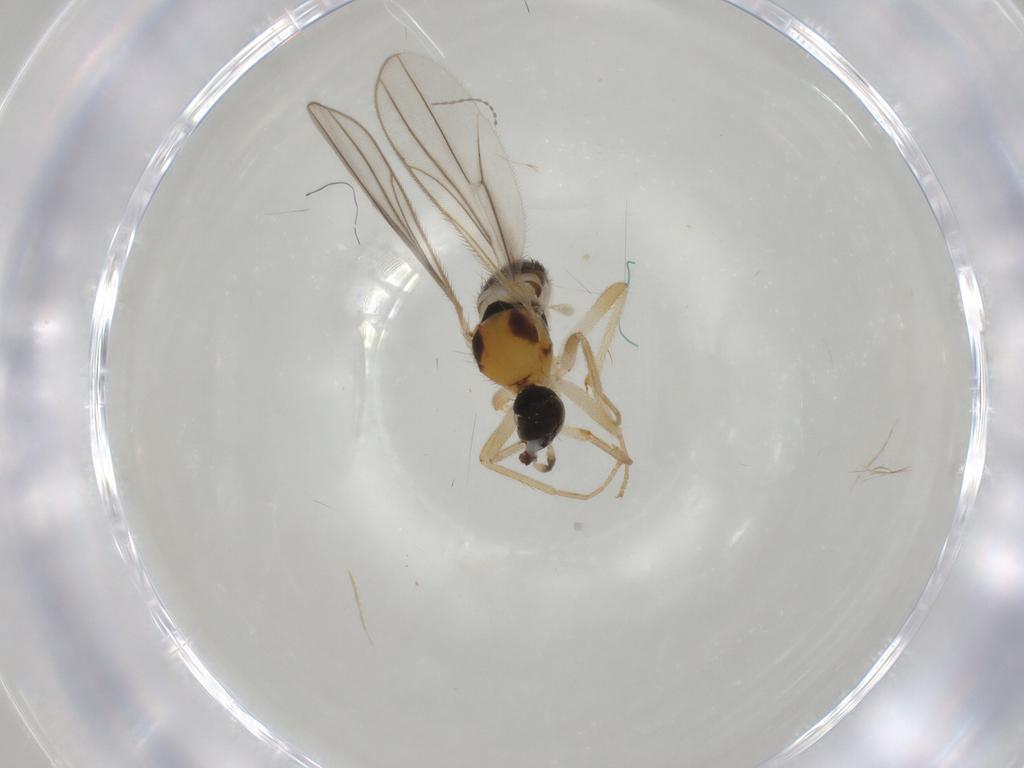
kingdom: Animalia
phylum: Arthropoda
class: Insecta
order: Diptera
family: Hybotidae
